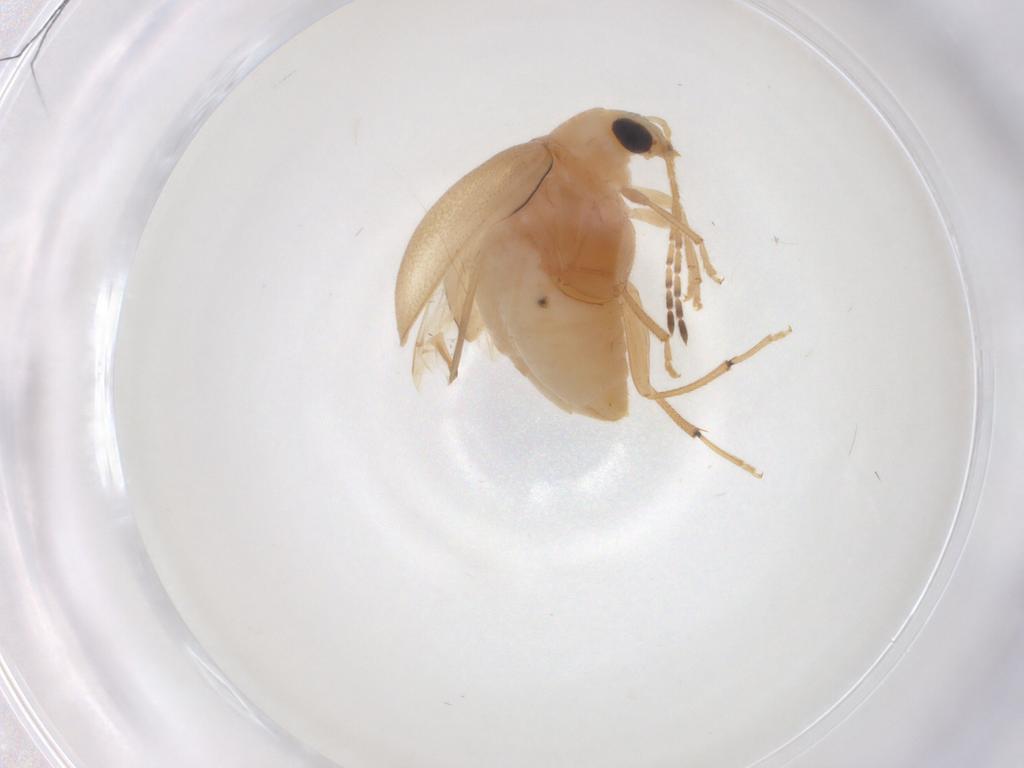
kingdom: Animalia
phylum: Arthropoda
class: Insecta
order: Coleoptera
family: Chrysomelidae
